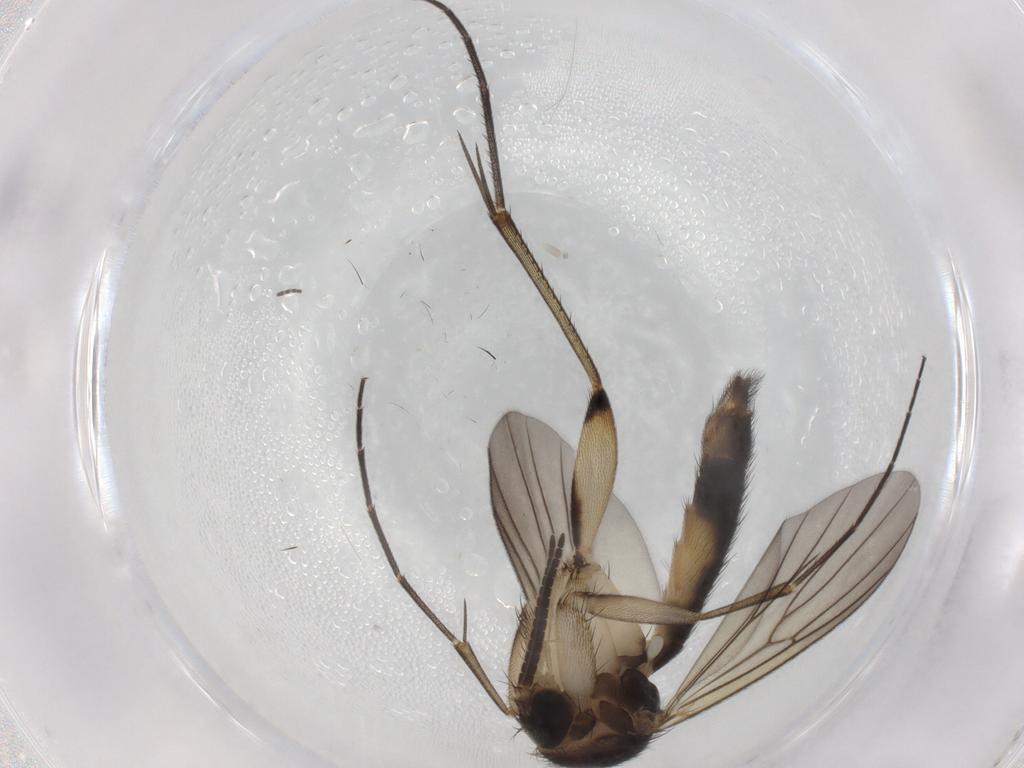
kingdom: Animalia
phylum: Arthropoda
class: Insecta
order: Diptera
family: Mycetophilidae
